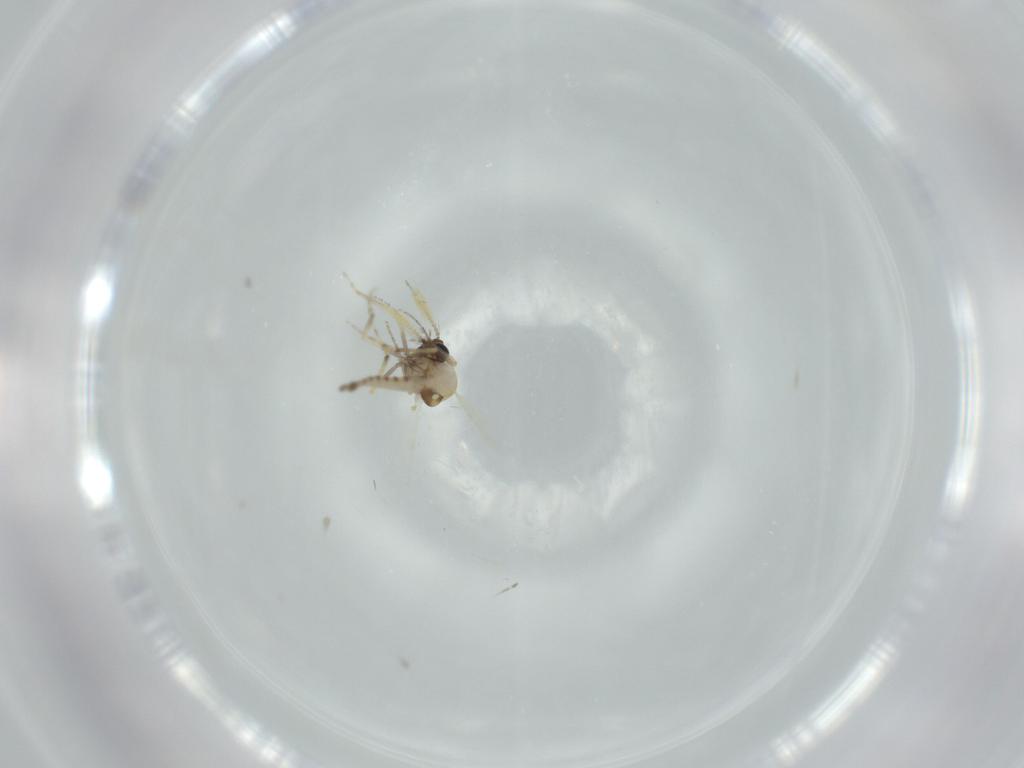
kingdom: Animalia
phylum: Arthropoda
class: Insecta
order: Diptera
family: Ceratopogonidae
